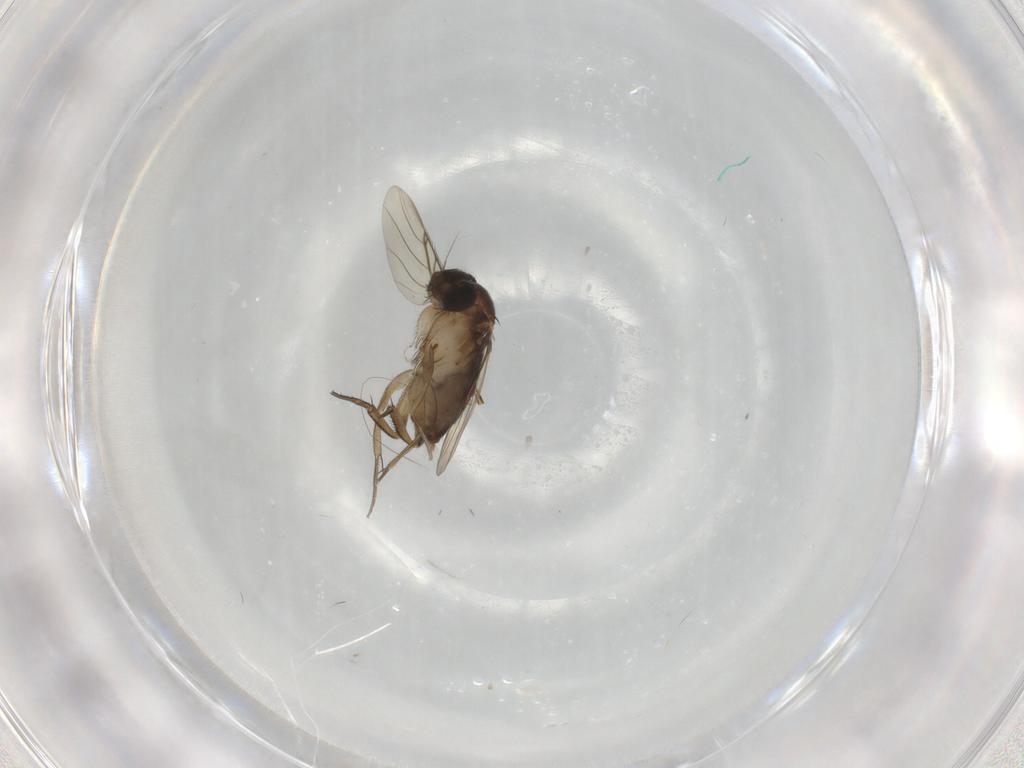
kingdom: Animalia
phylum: Arthropoda
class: Insecta
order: Diptera
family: Phoridae
